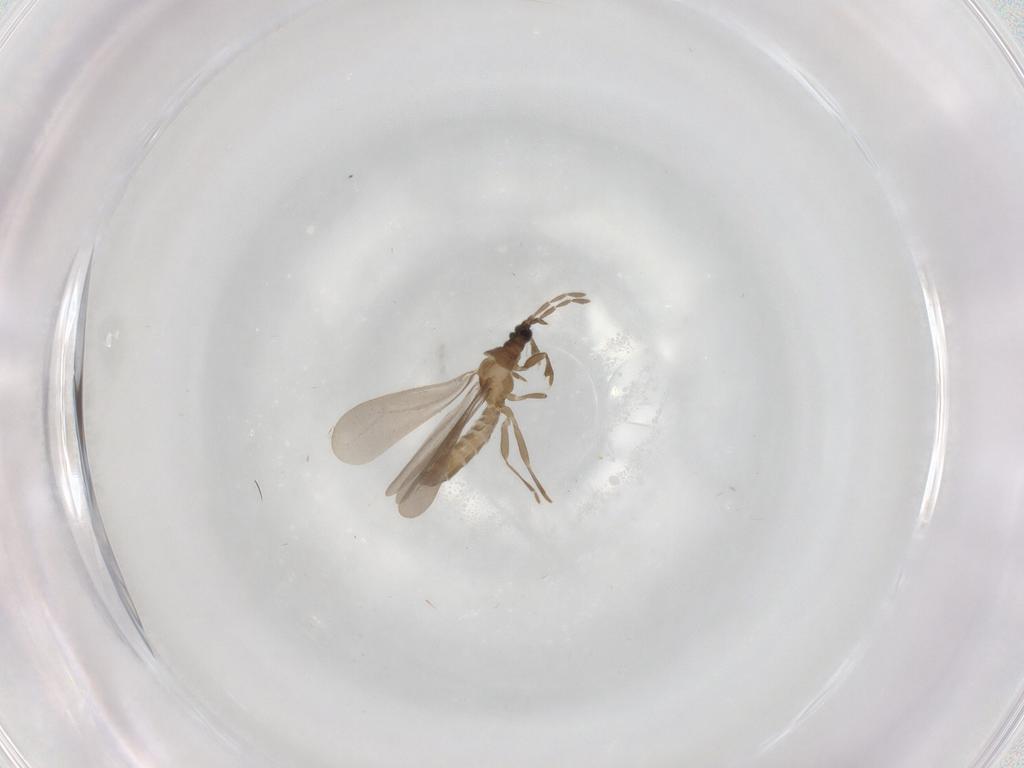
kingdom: Animalia
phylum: Arthropoda
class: Insecta
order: Hemiptera
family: Enicocephalidae
